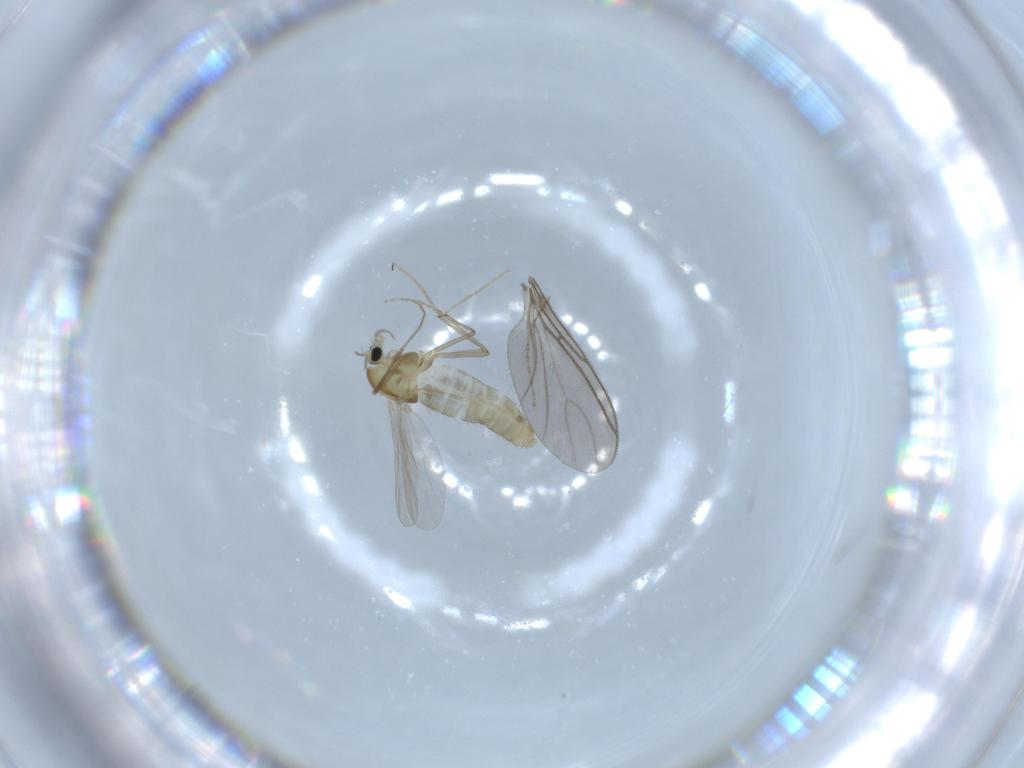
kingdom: Animalia
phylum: Arthropoda
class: Insecta
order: Diptera
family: Chironomidae
